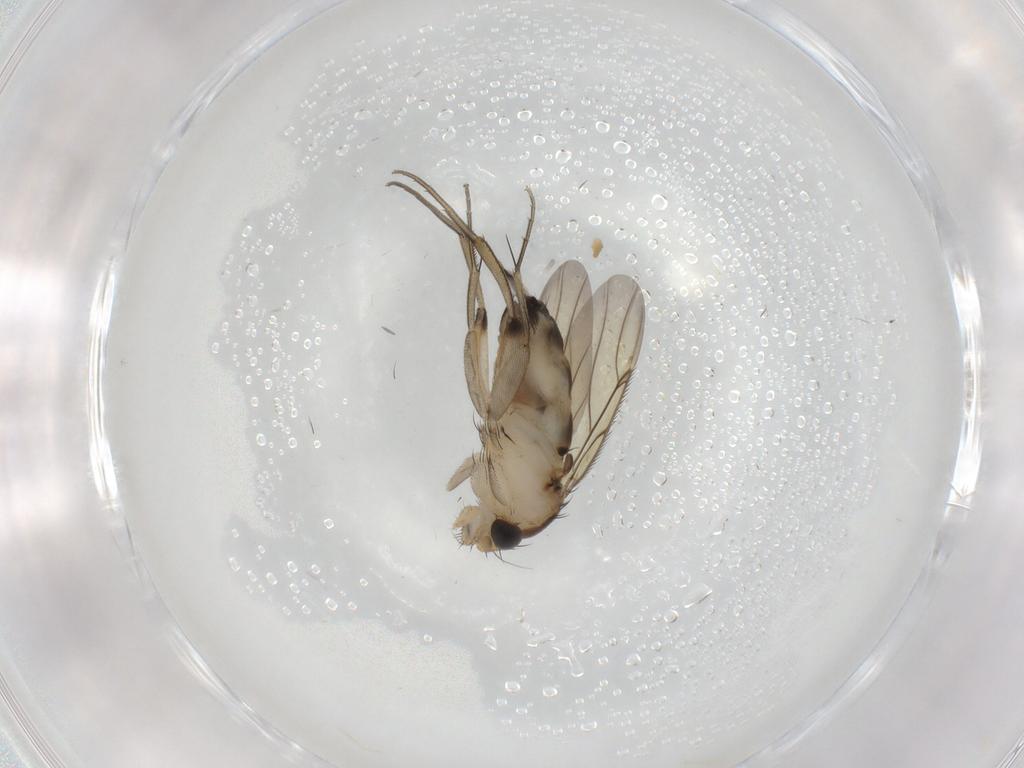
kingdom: Animalia
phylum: Arthropoda
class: Insecta
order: Diptera
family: Phoridae
